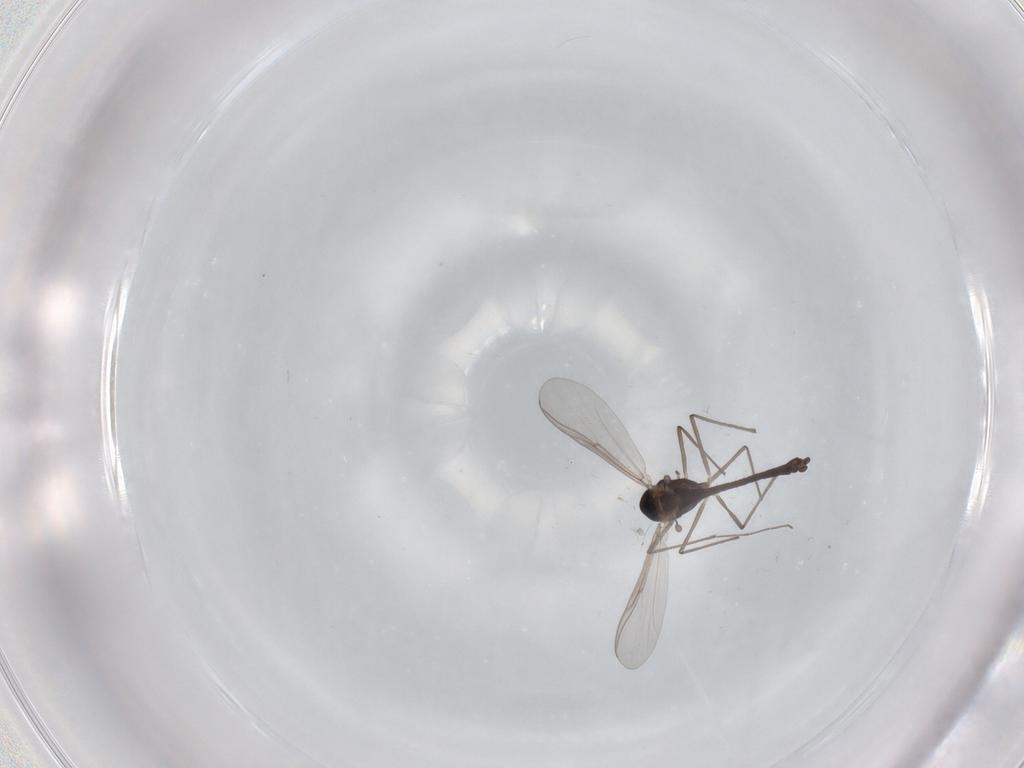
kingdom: Animalia
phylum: Arthropoda
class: Insecta
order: Diptera
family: Chironomidae
